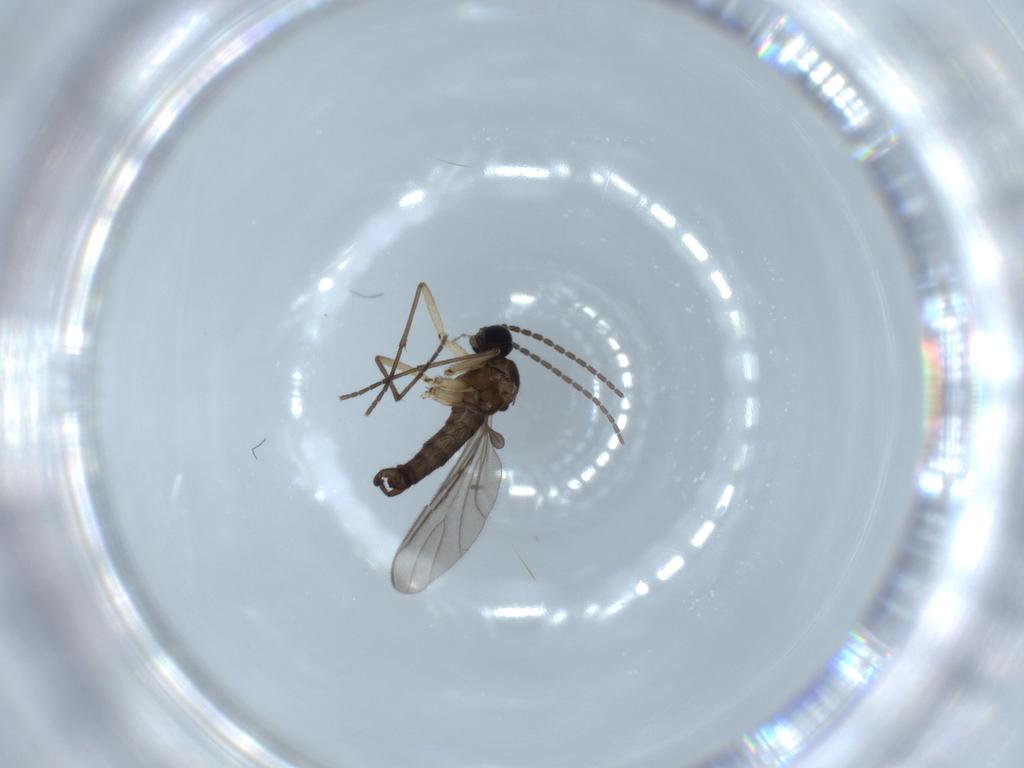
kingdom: Animalia
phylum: Arthropoda
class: Insecta
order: Diptera
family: Sciaridae
